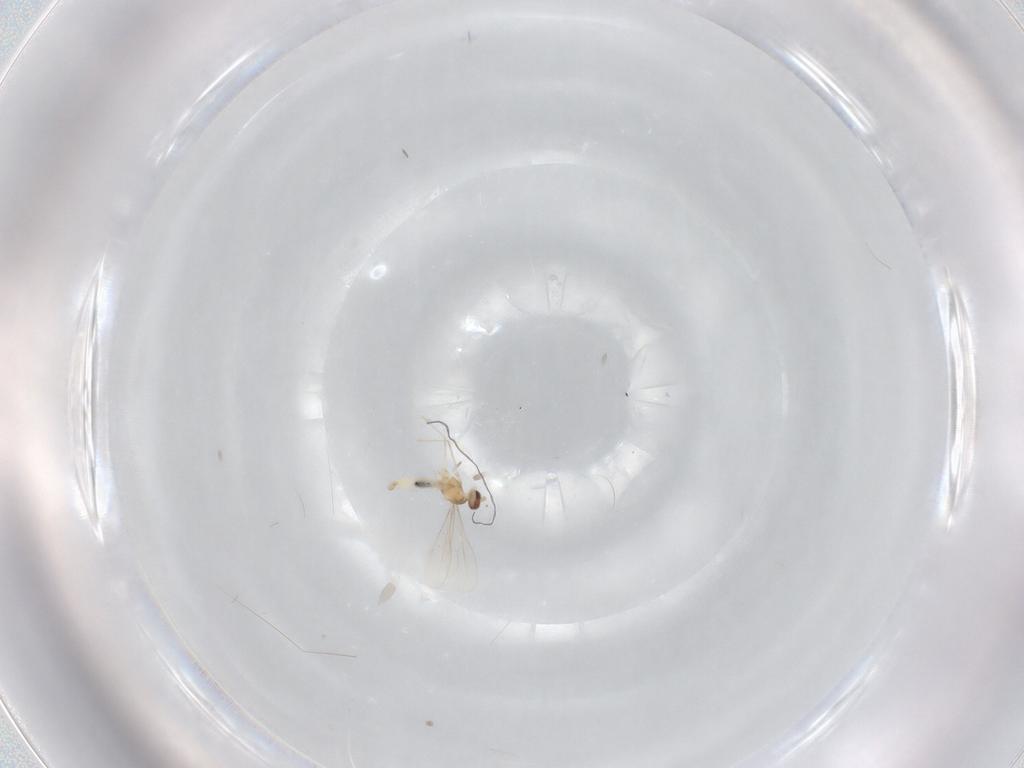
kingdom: Animalia
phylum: Arthropoda
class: Insecta
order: Diptera
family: Cecidomyiidae
